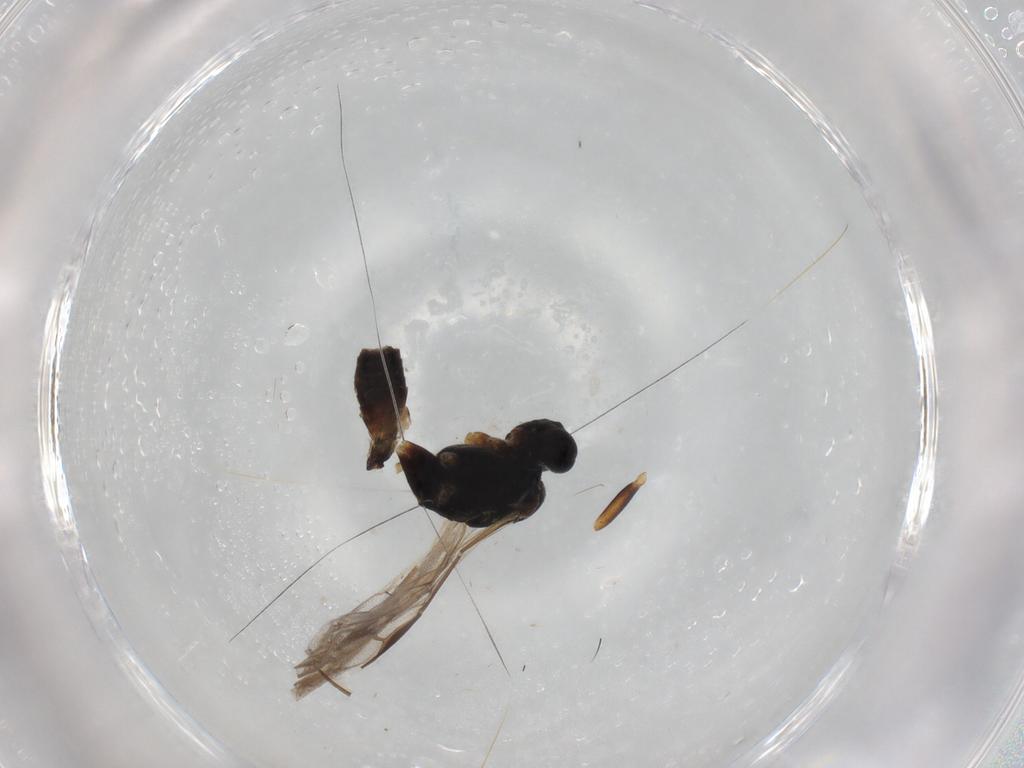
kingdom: Animalia
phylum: Arthropoda
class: Insecta
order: Hymenoptera
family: Braconidae
